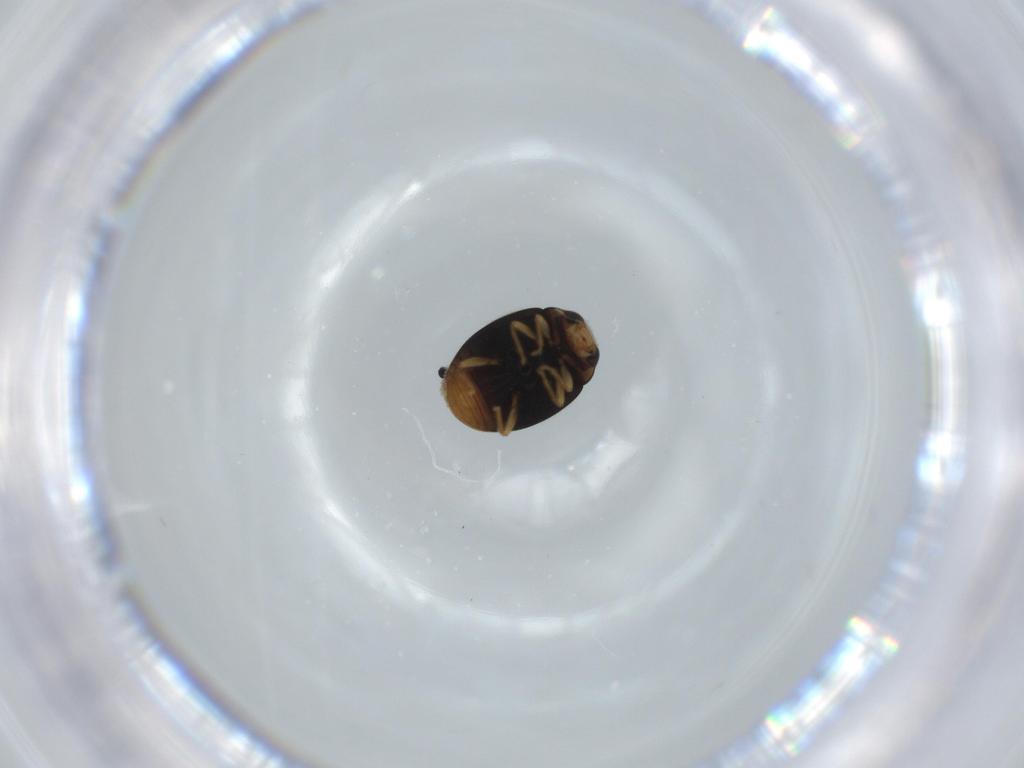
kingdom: Animalia
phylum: Arthropoda
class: Insecta
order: Coleoptera
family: Coccinellidae
